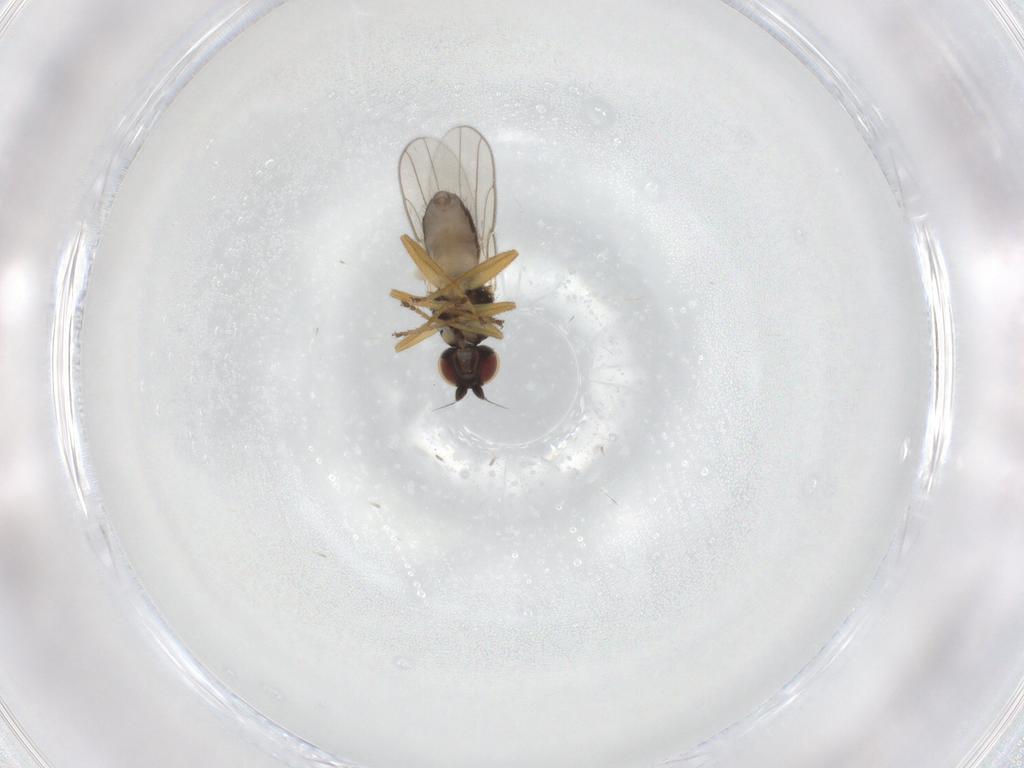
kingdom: Animalia
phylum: Arthropoda
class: Insecta
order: Diptera
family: Chloropidae
